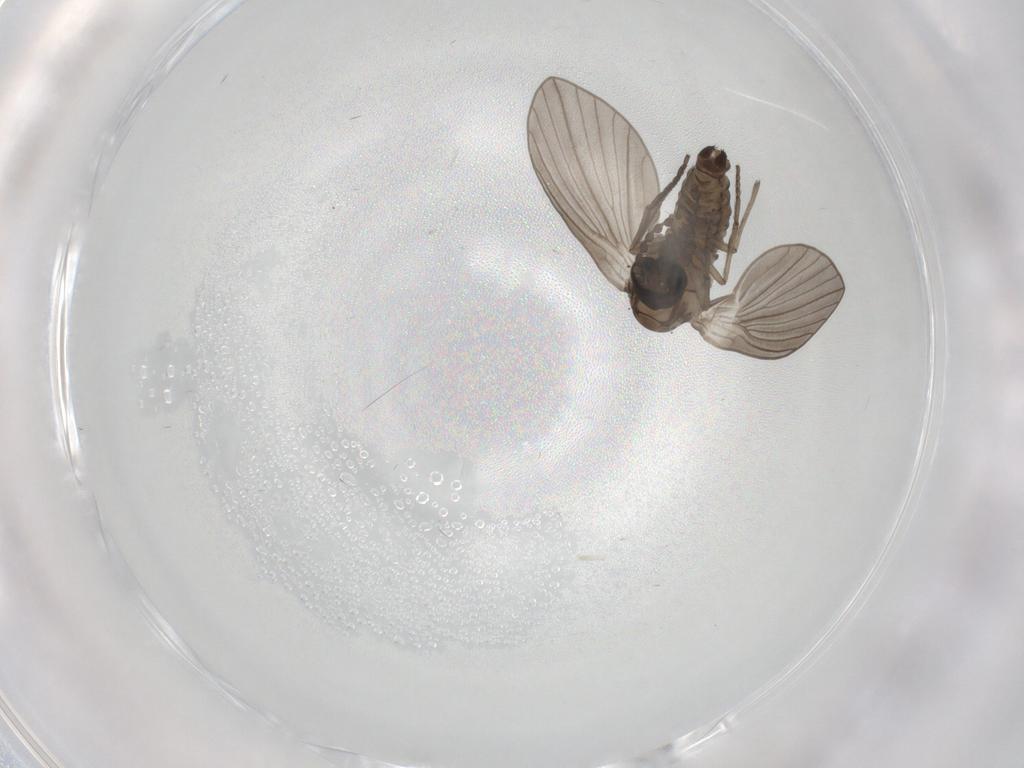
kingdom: Animalia
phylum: Arthropoda
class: Insecta
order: Diptera
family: Psychodidae
